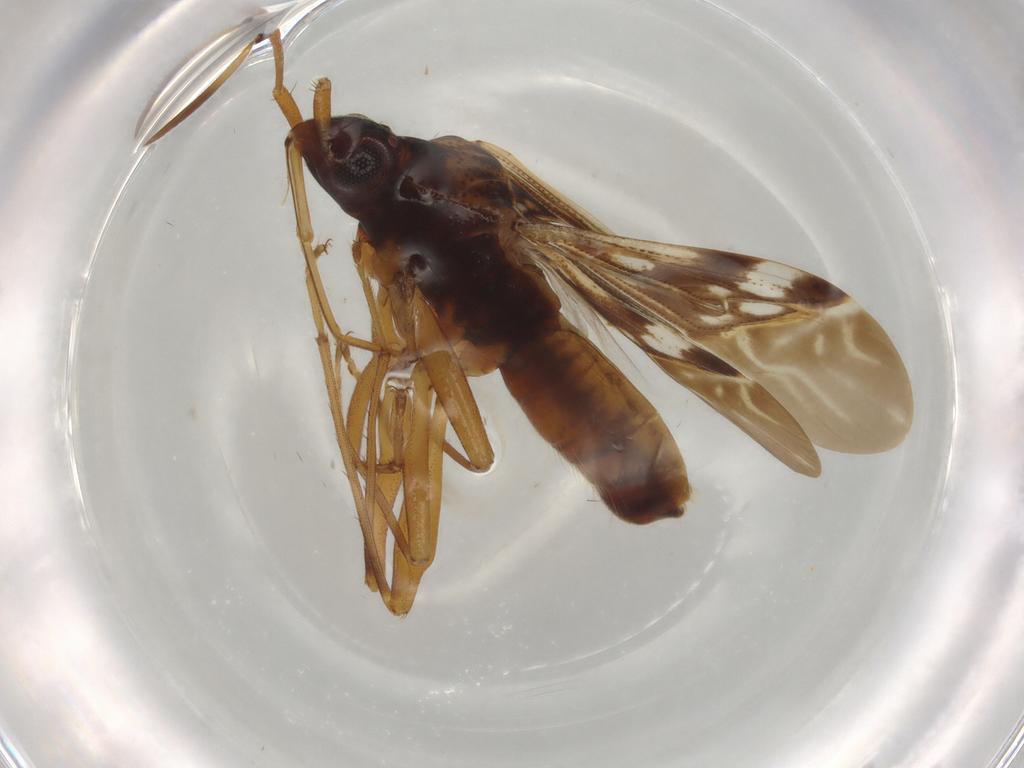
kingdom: Animalia
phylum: Arthropoda
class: Insecta
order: Hemiptera
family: Rhyparochromidae
